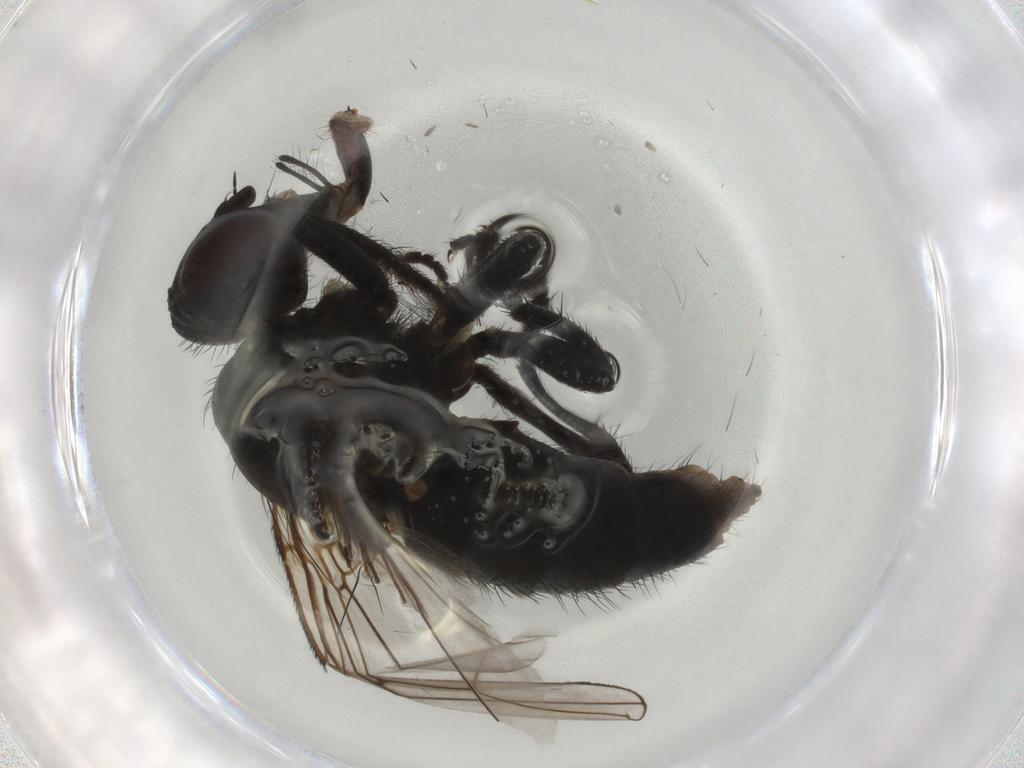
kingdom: Animalia
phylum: Arthropoda
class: Insecta
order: Diptera
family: Muscidae
